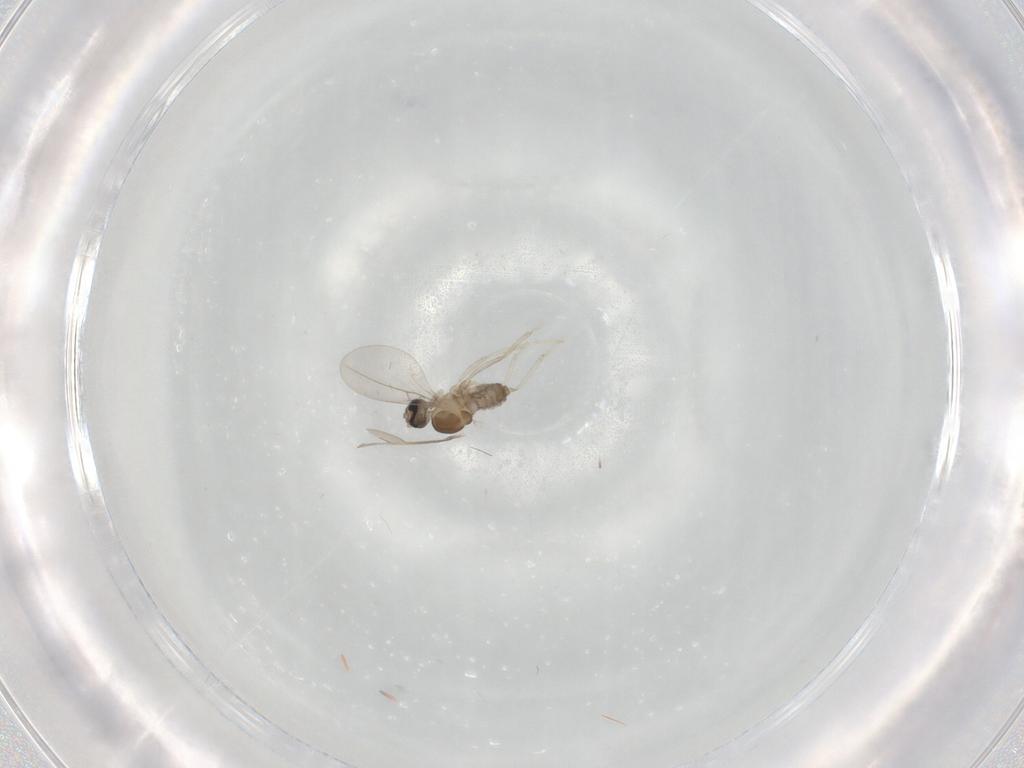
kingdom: Animalia
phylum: Arthropoda
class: Insecta
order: Diptera
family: Cecidomyiidae
